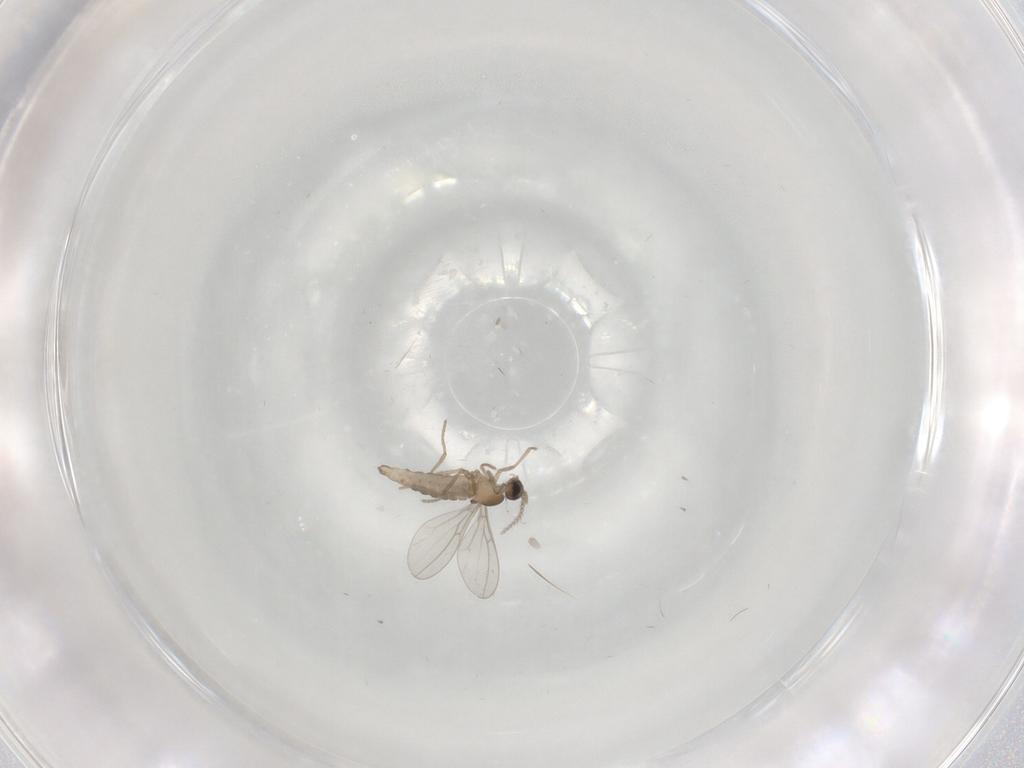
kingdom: Animalia
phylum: Arthropoda
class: Insecta
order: Diptera
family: Cecidomyiidae
